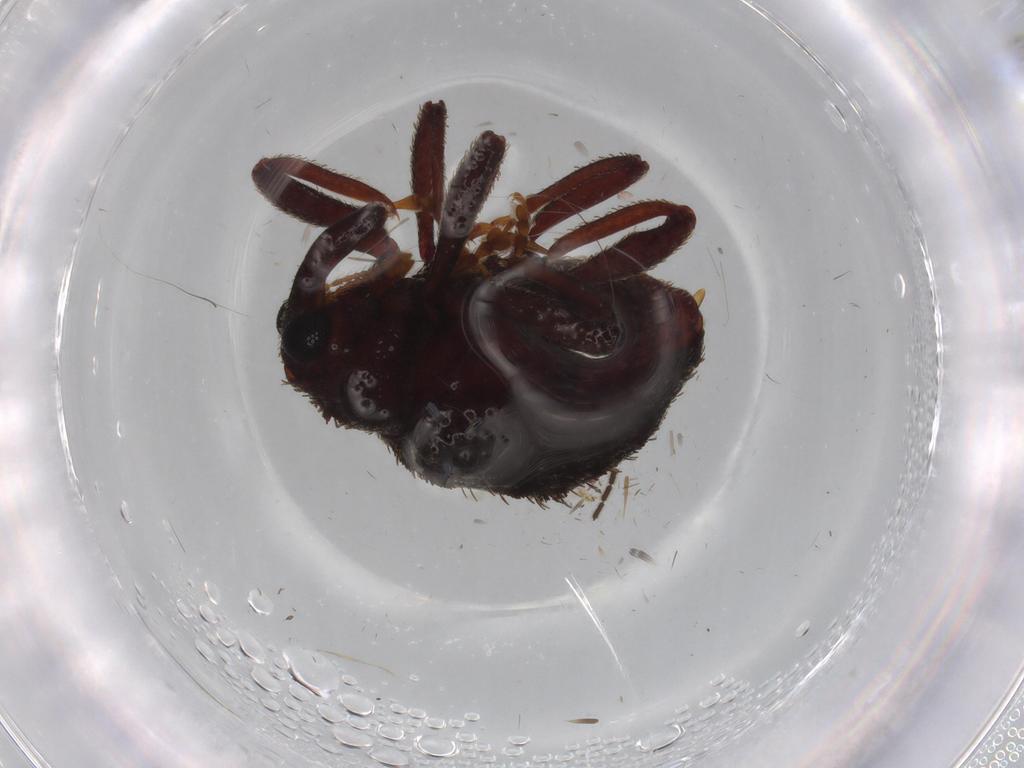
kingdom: Animalia
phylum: Arthropoda
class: Insecta
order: Coleoptera
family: Curculionidae
